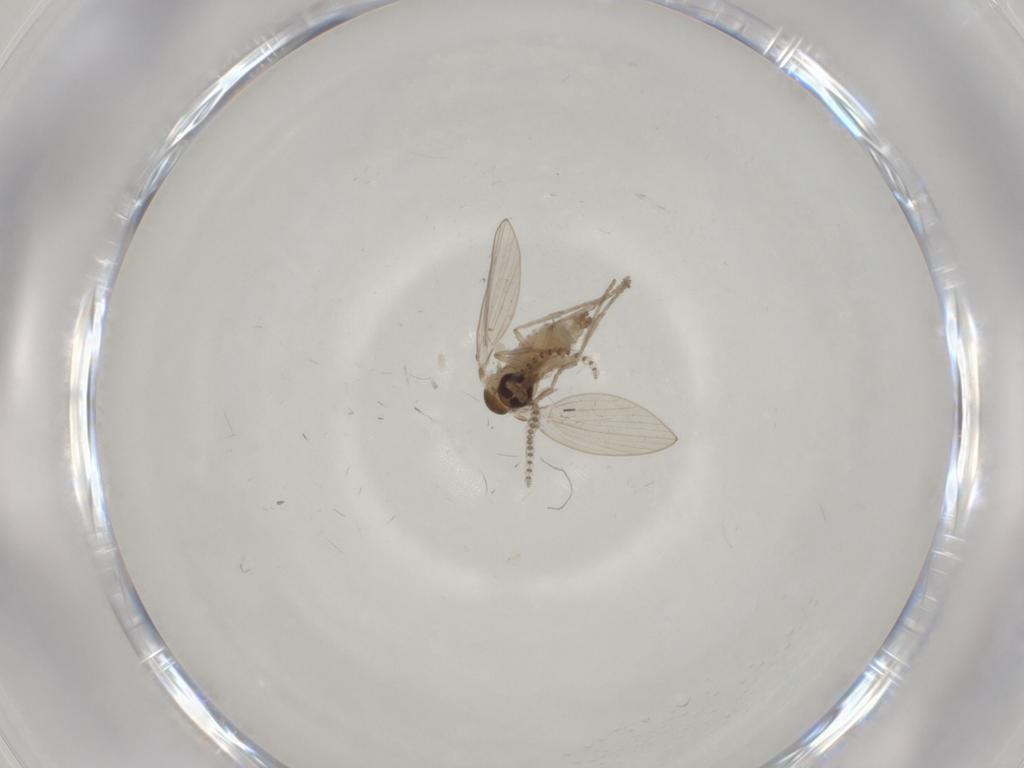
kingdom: Animalia
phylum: Arthropoda
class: Insecta
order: Diptera
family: Psychodidae
